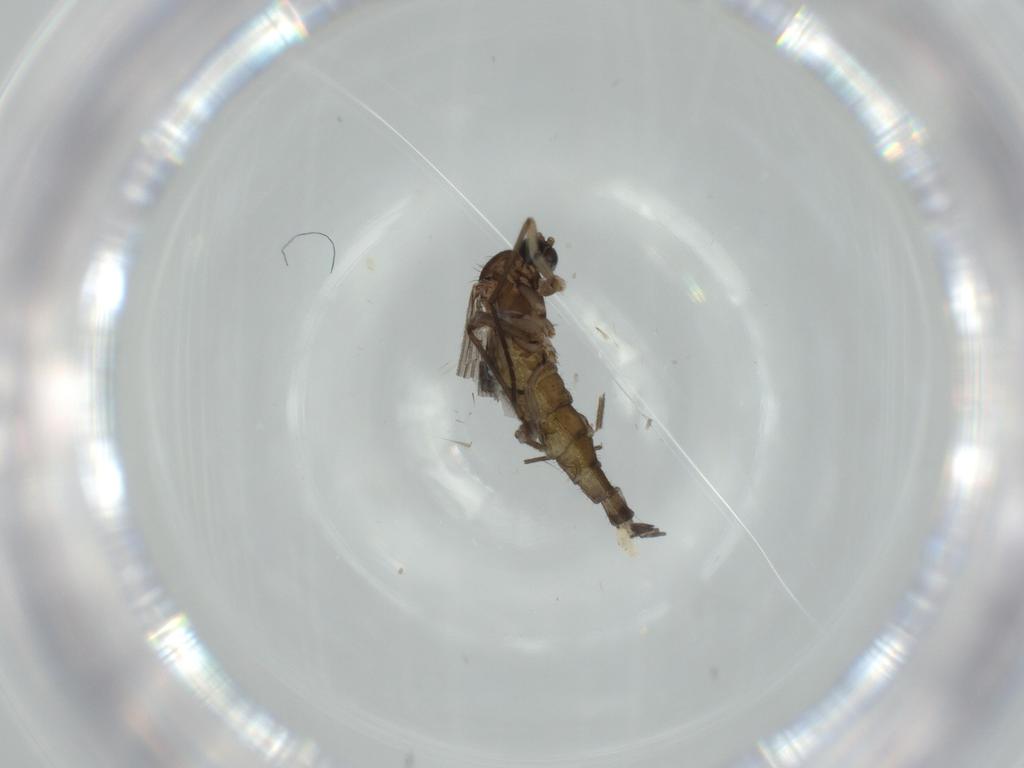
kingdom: Animalia
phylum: Arthropoda
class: Insecta
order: Diptera
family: Sciaridae
